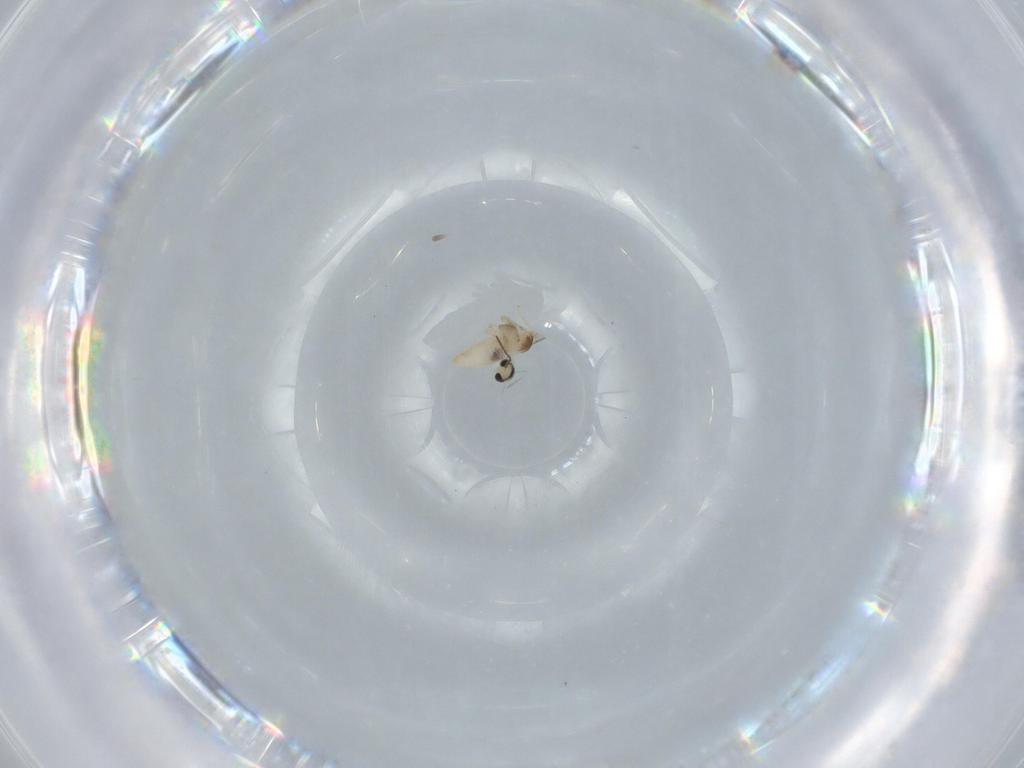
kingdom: Animalia
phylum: Arthropoda
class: Insecta
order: Diptera
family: Cecidomyiidae
